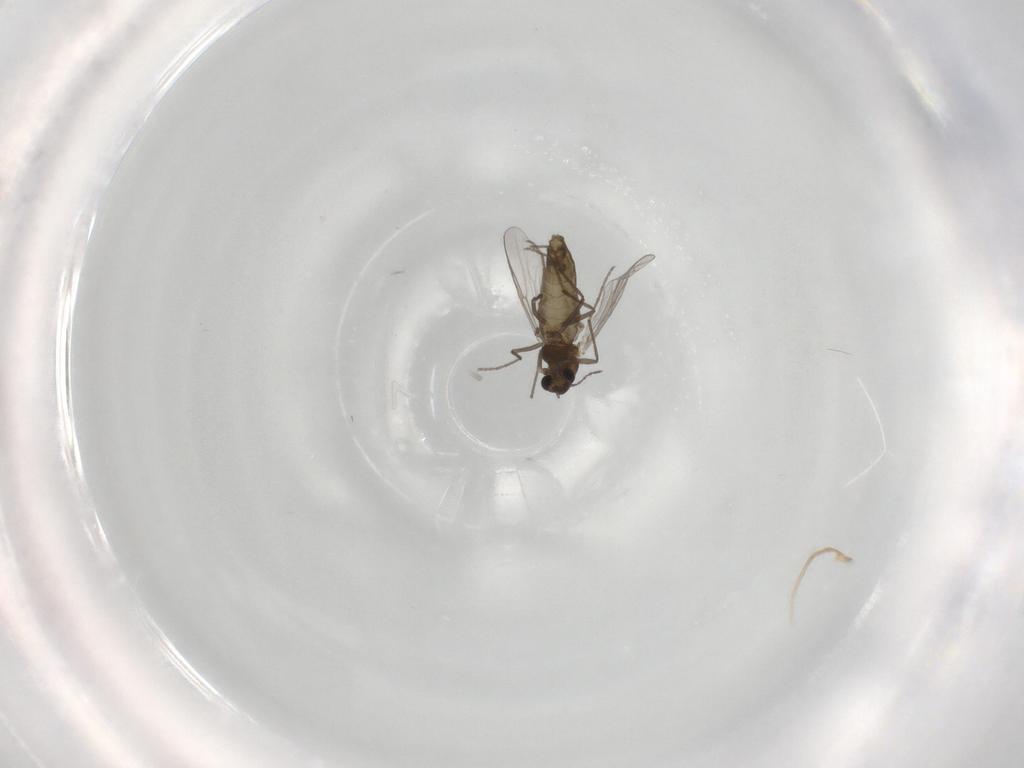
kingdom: Animalia
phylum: Arthropoda
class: Insecta
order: Diptera
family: Chironomidae
